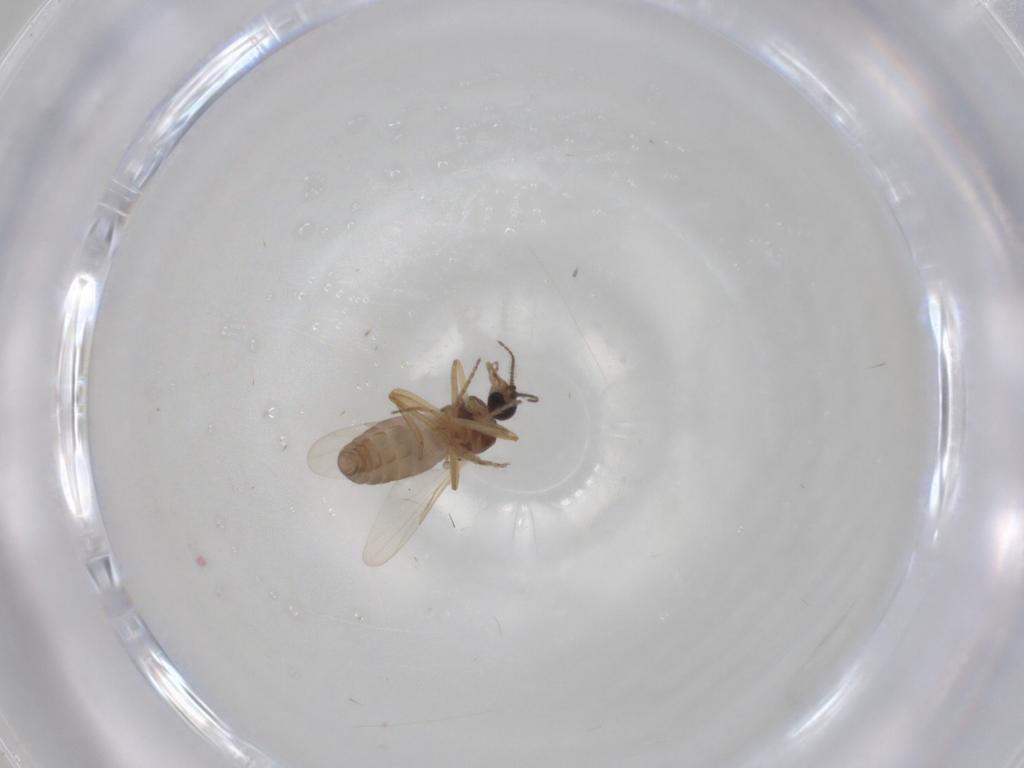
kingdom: Animalia
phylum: Arthropoda
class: Insecta
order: Diptera
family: Ceratopogonidae
